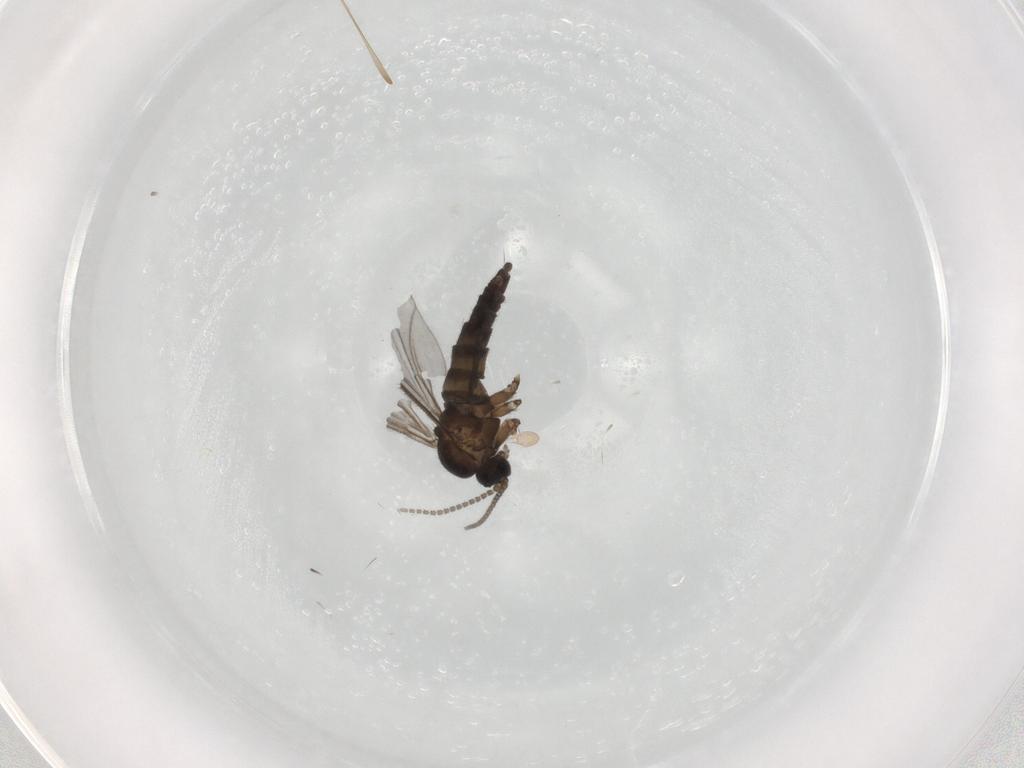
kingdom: Animalia
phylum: Arthropoda
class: Insecta
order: Diptera
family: Sciaridae
